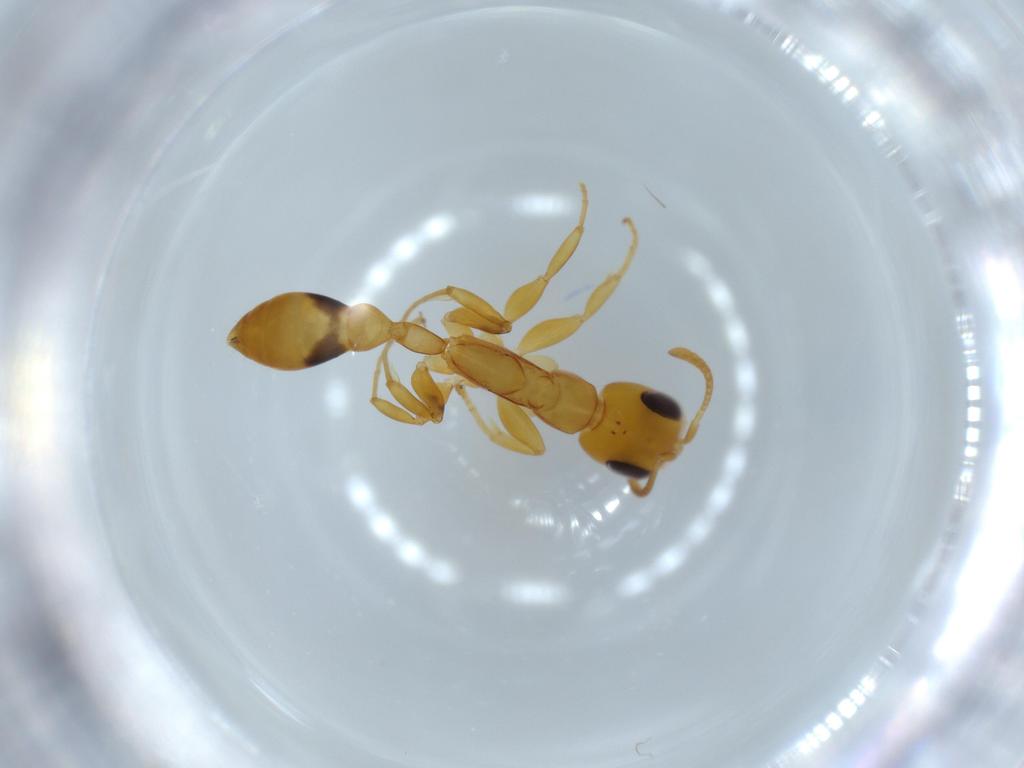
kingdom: Animalia
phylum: Arthropoda
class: Insecta
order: Hymenoptera
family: Formicidae
